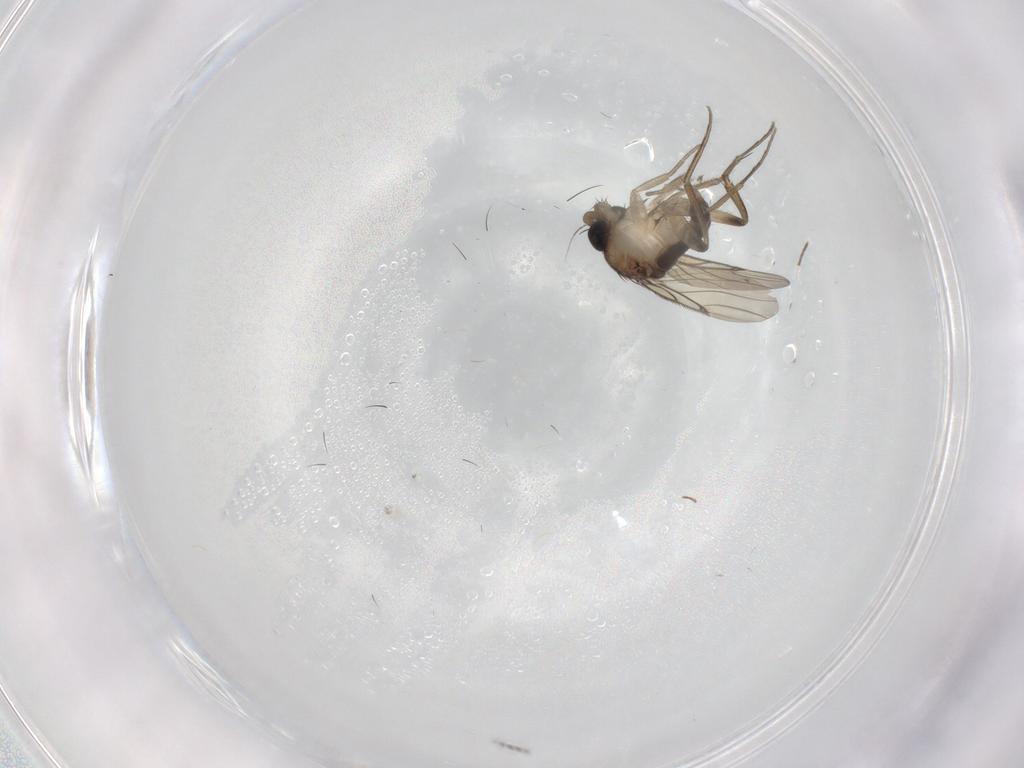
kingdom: Animalia
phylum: Arthropoda
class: Insecta
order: Diptera
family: Phoridae
